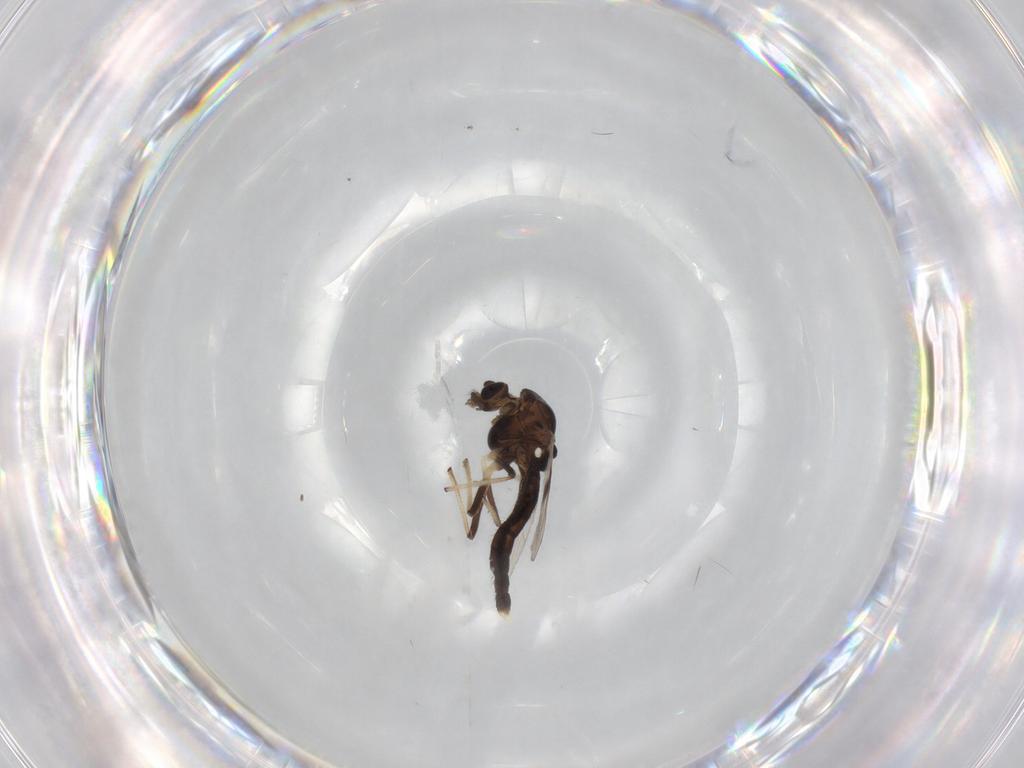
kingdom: Animalia
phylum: Arthropoda
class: Insecta
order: Diptera
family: Chironomidae
